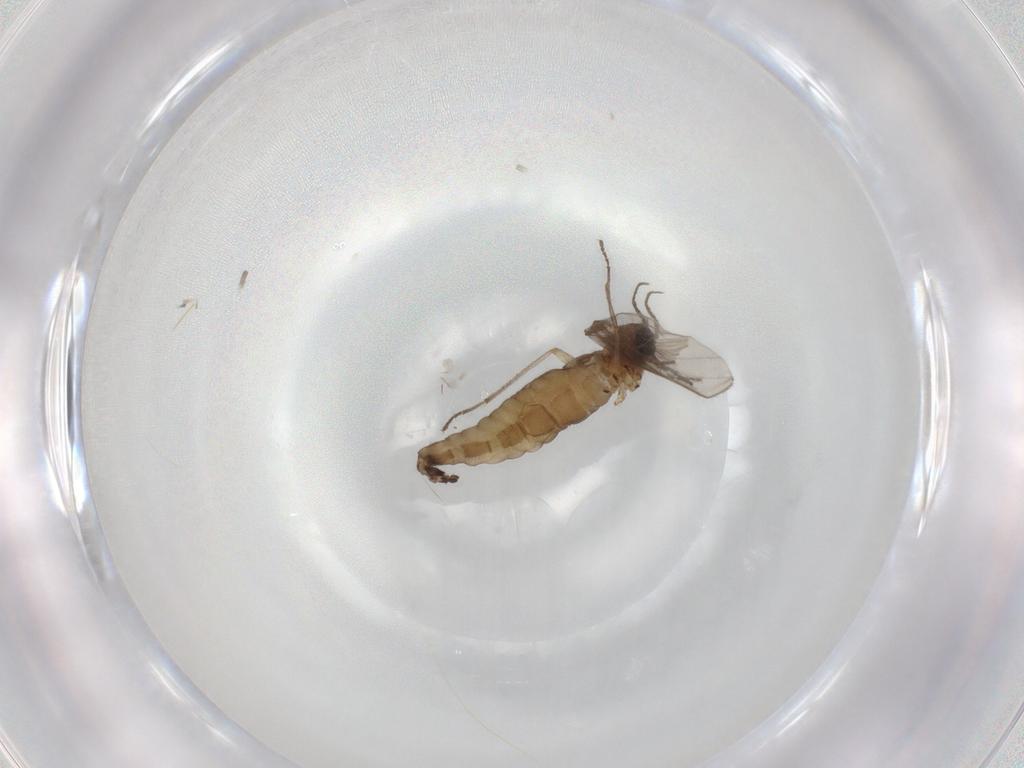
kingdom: Animalia
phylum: Arthropoda
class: Insecta
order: Diptera
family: Sciaridae
